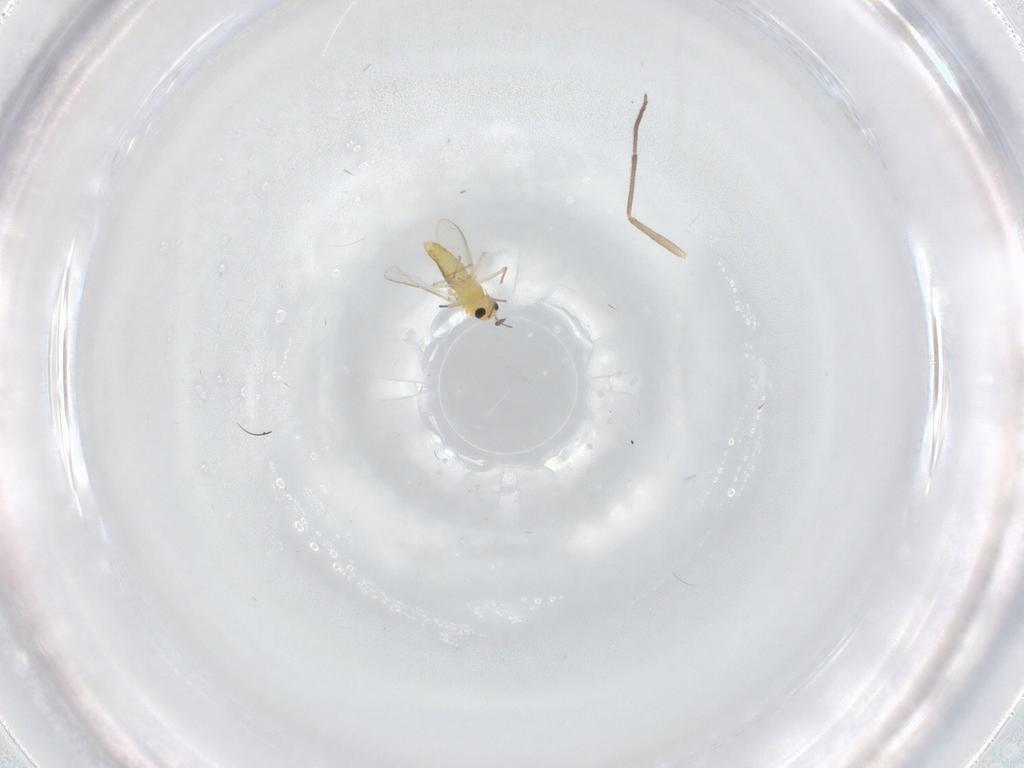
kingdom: Animalia
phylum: Arthropoda
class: Insecta
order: Diptera
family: Chironomidae
